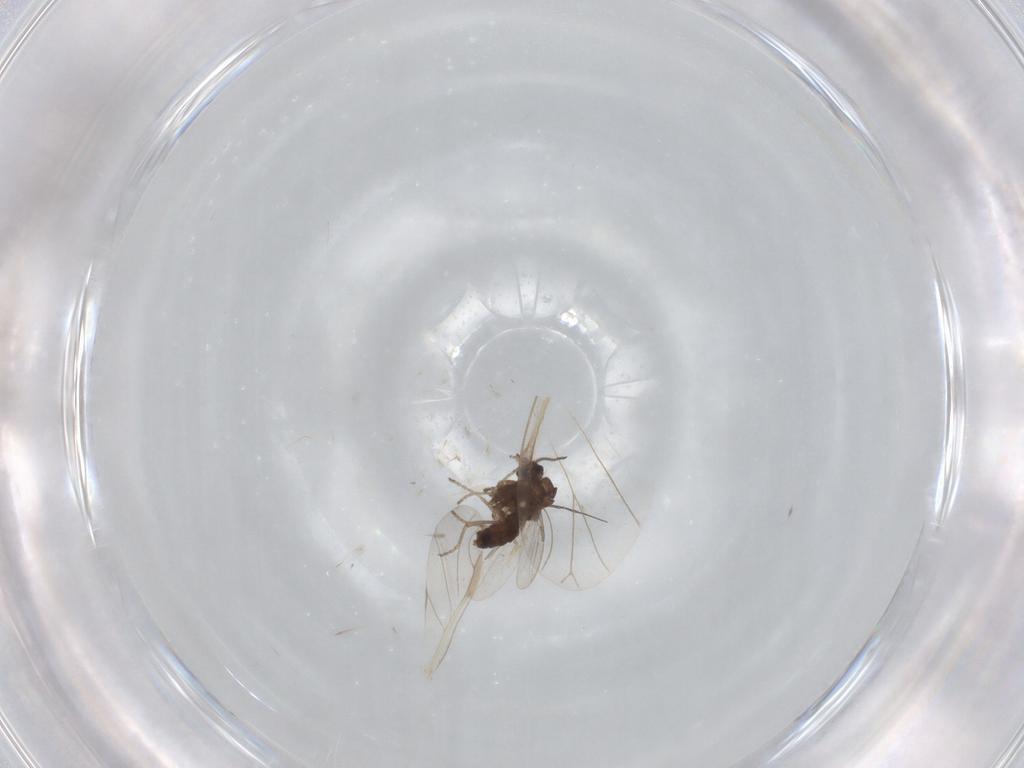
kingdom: Animalia
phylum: Arthropoda
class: Insecta
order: Diptera
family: Ceratopogonidae
